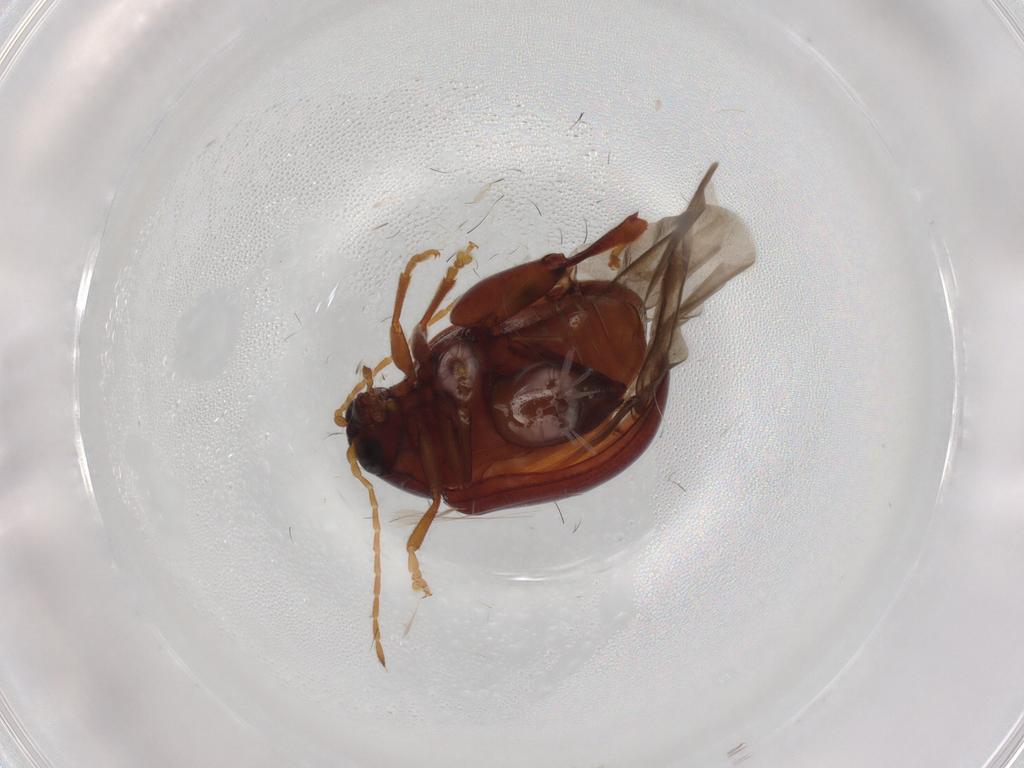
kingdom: Animalia
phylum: Arthropoda
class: Insecta
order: Coleoptera
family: Chrysomelidae
